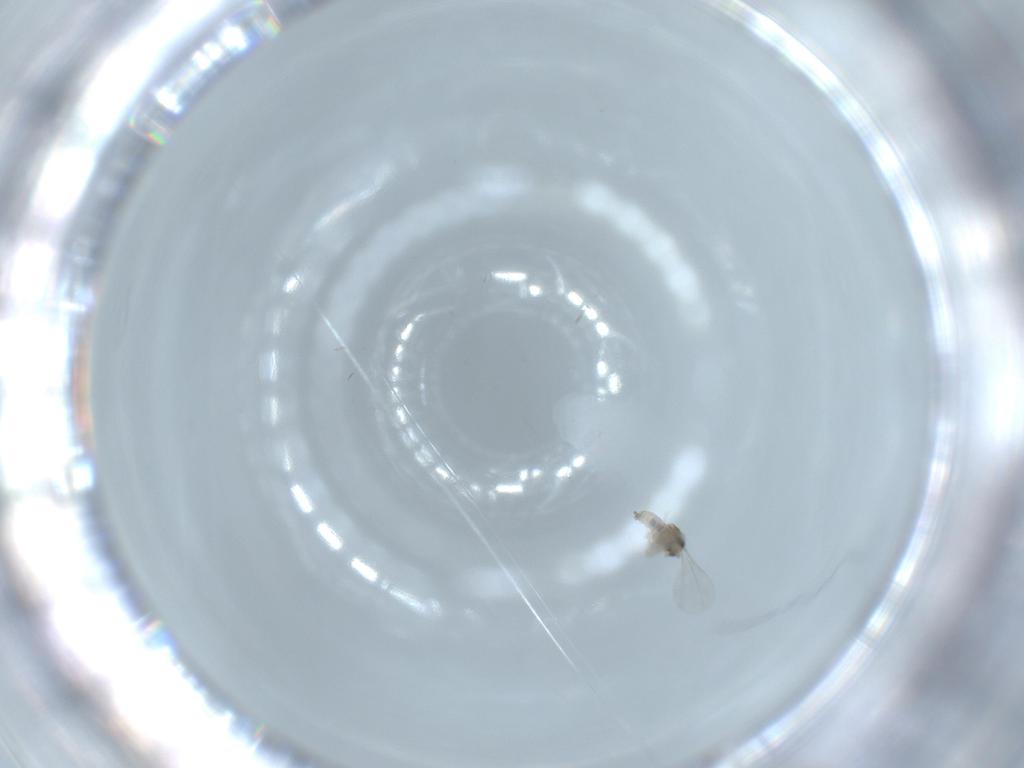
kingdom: Animalia
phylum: Arthropoda
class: Insecta
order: Diptera
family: Cecidomyiidae
